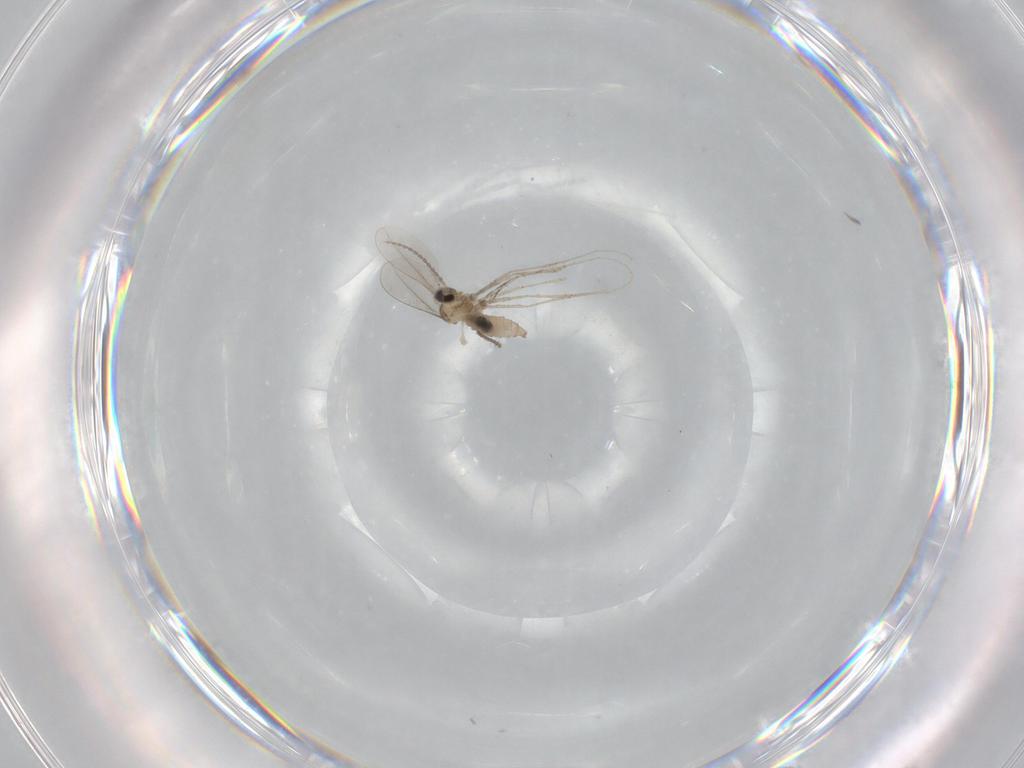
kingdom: Animalia
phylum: Arthropoda
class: Insecta
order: Diptera
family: Cecidomyiidae
